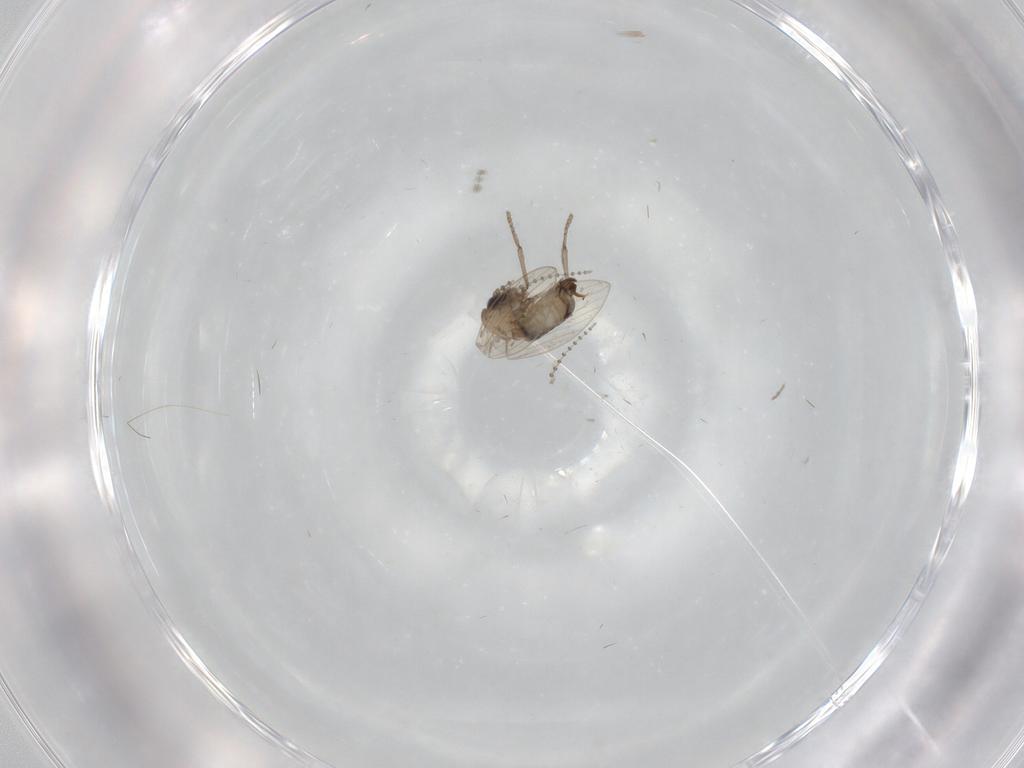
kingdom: Animalia
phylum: Arthropoda
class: Insecta
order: Diptera
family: Psychodidae
